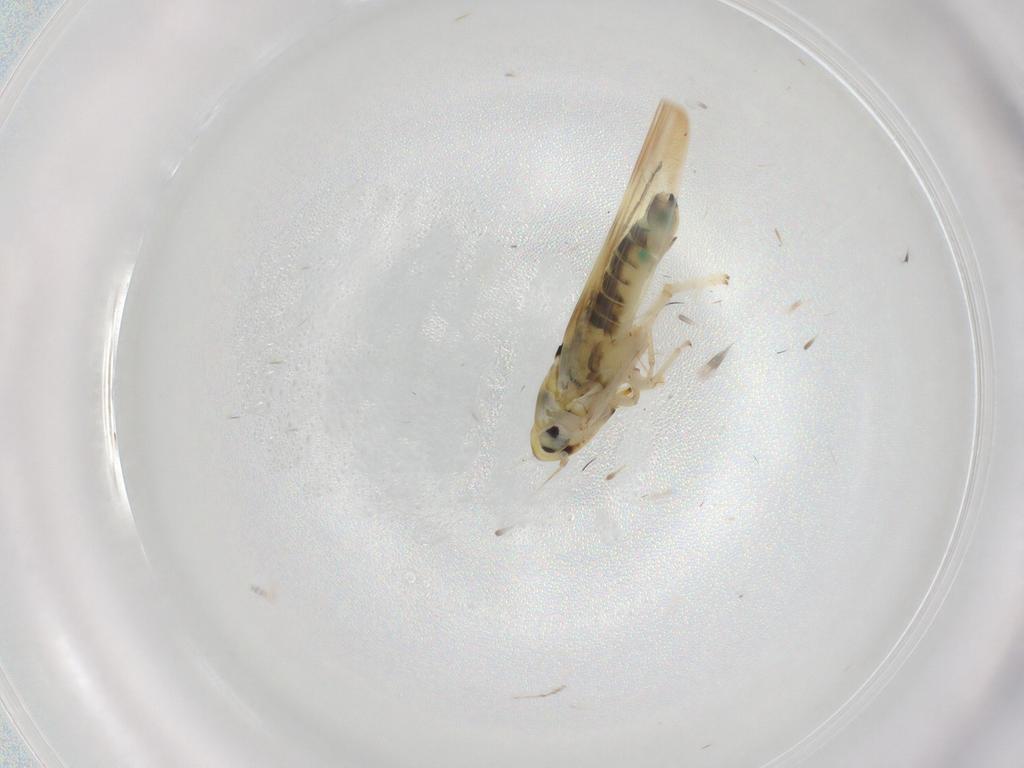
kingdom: Animalia
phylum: Arthropoda
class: Insecta
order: Hemiptera
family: Cicadellidae
